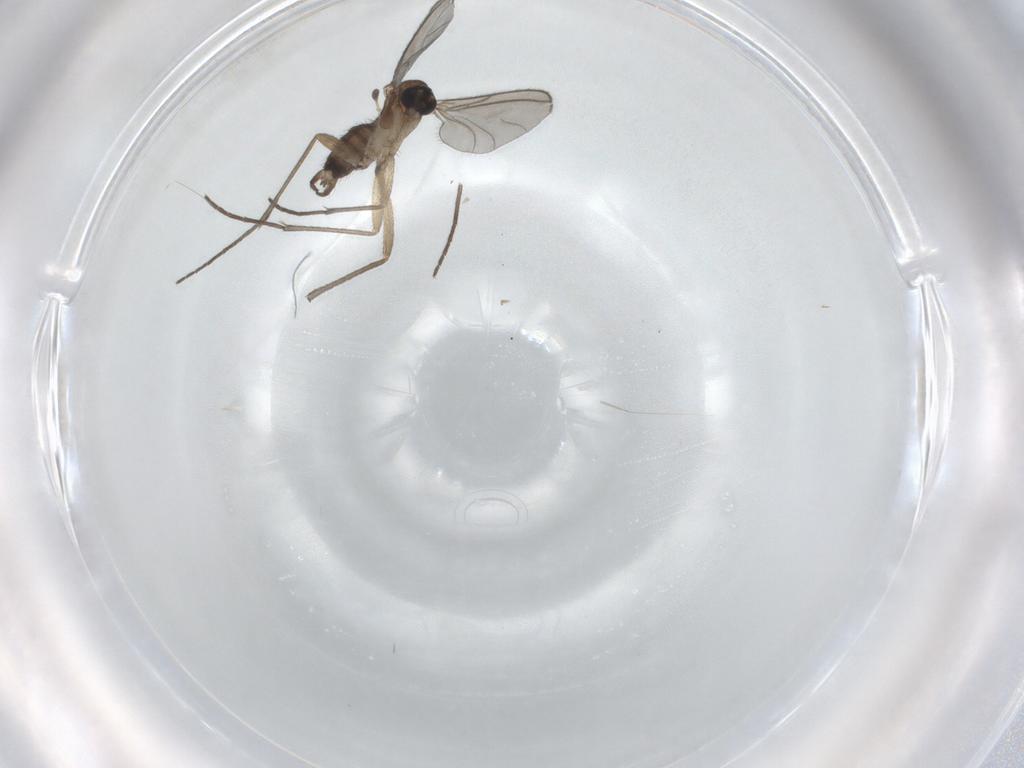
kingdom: Animalia
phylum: Arthropoda
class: Insecta
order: Diptera
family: Sciaridae
